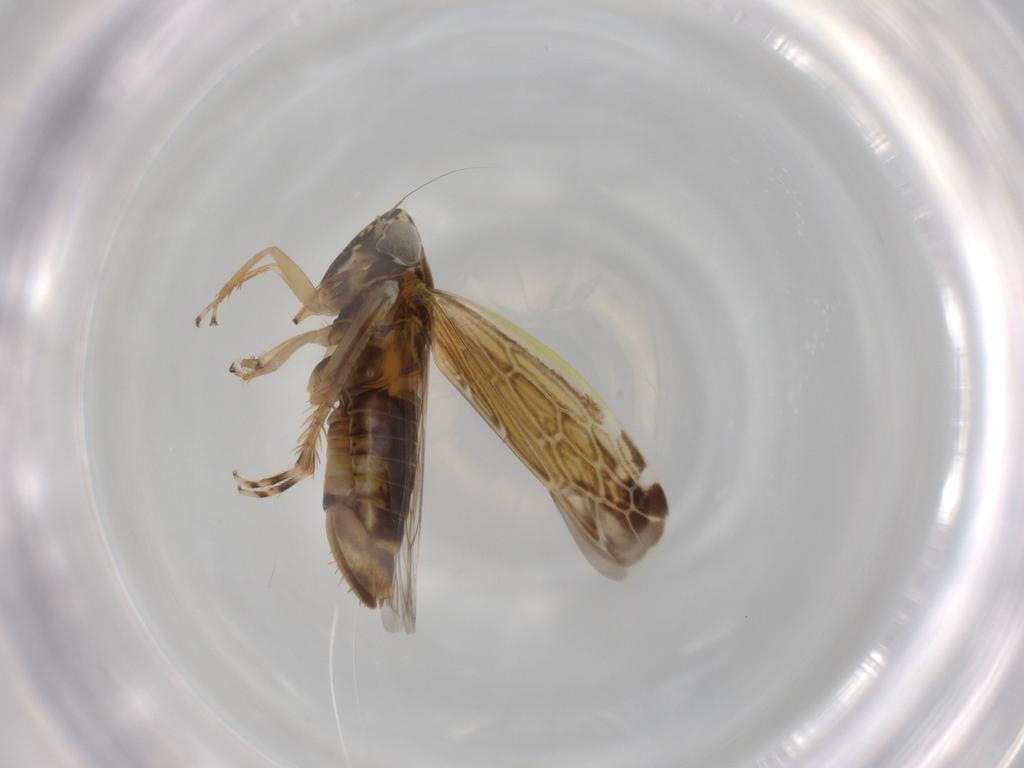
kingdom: Animalia
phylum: Arthropoda
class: Insecta
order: Hemiptera
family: Cicadellidae
